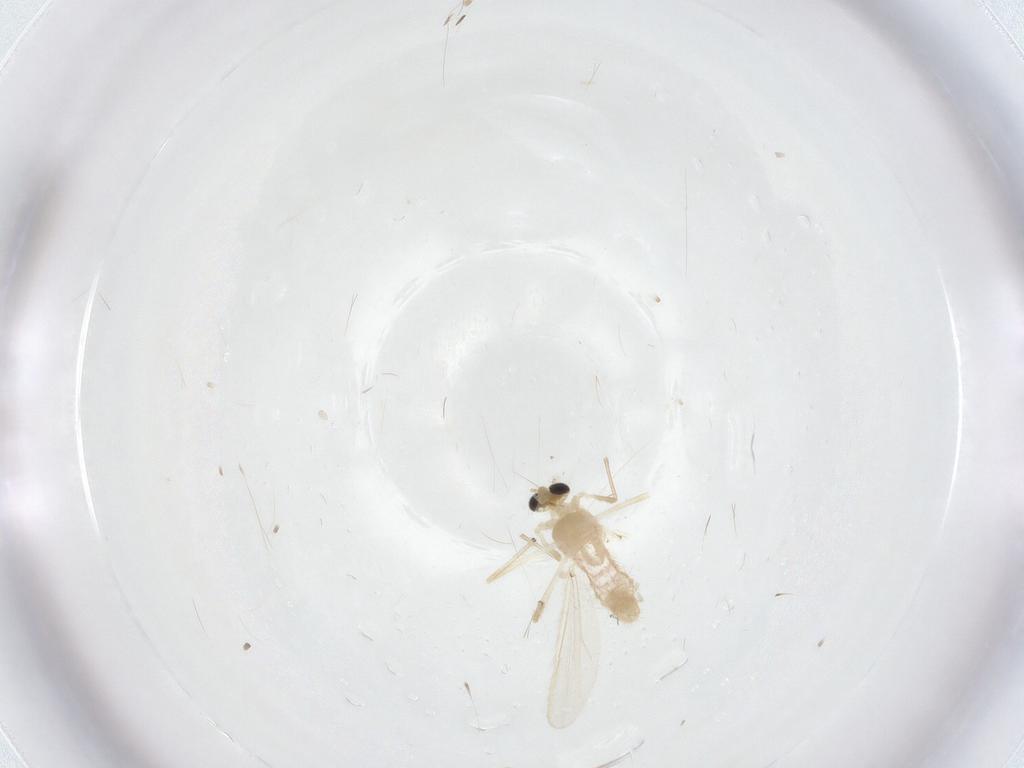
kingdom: Animalia
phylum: Arthropoda
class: Insecta
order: Diptera
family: Chironomidae
